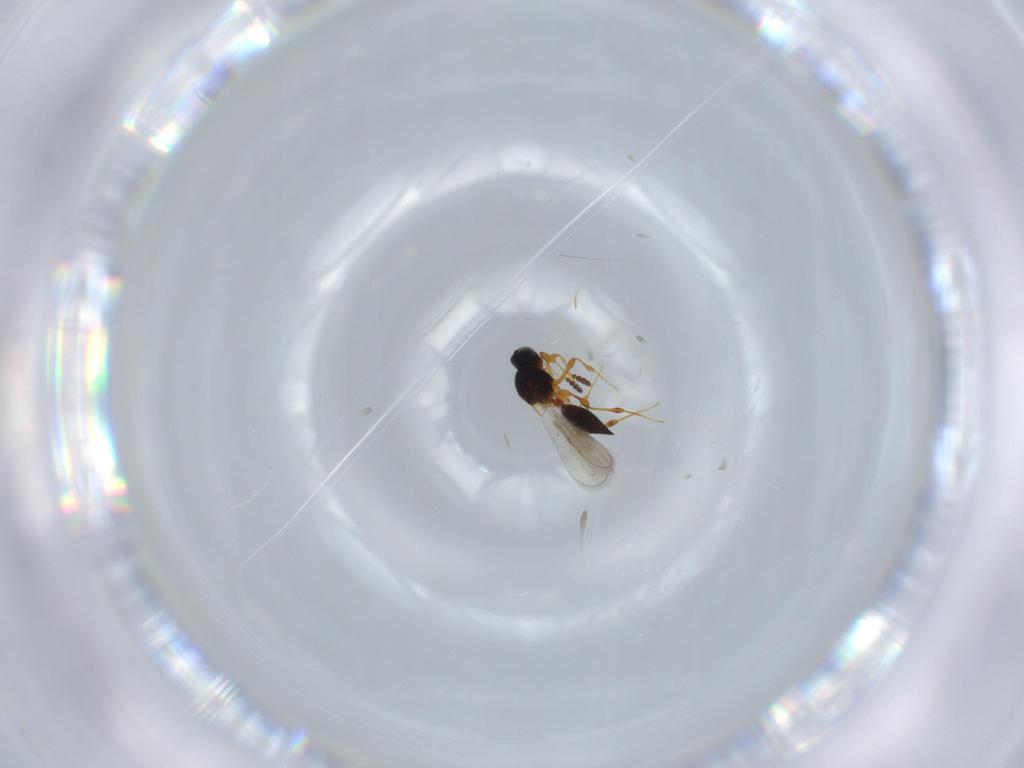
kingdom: Animalia
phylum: Arthropoda
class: Insecta
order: Hymenoptera
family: Platygastridae
